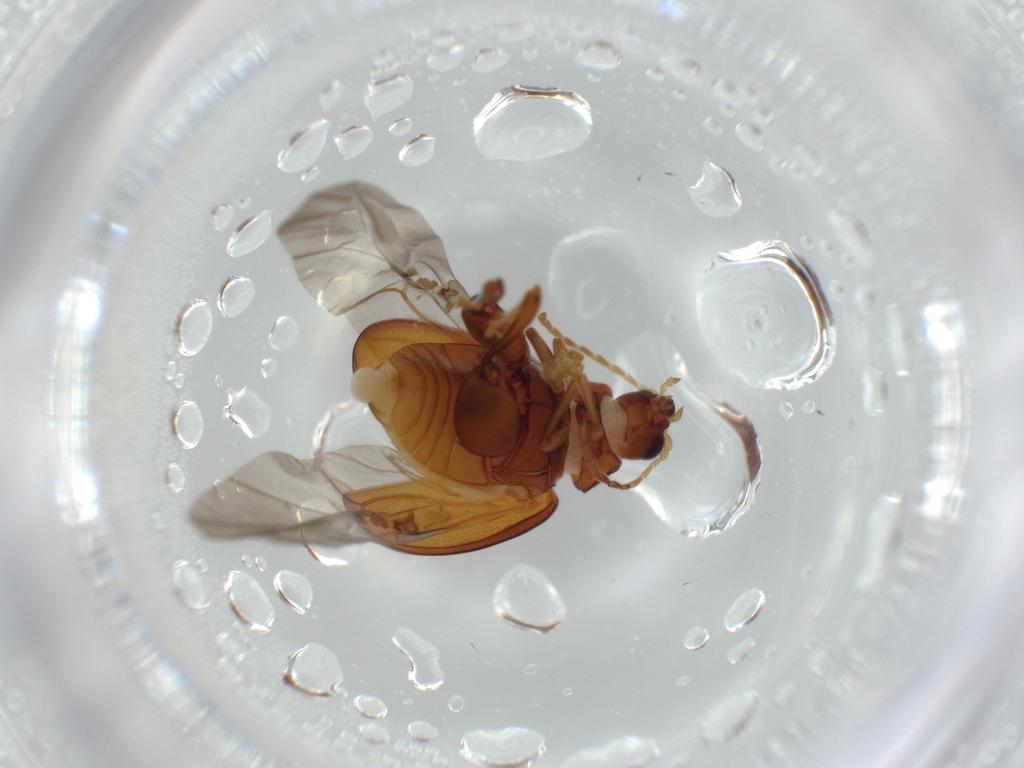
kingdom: Animalia
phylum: Arthropoda
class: Insecta
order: Coleoptera
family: Chrysomelidae
